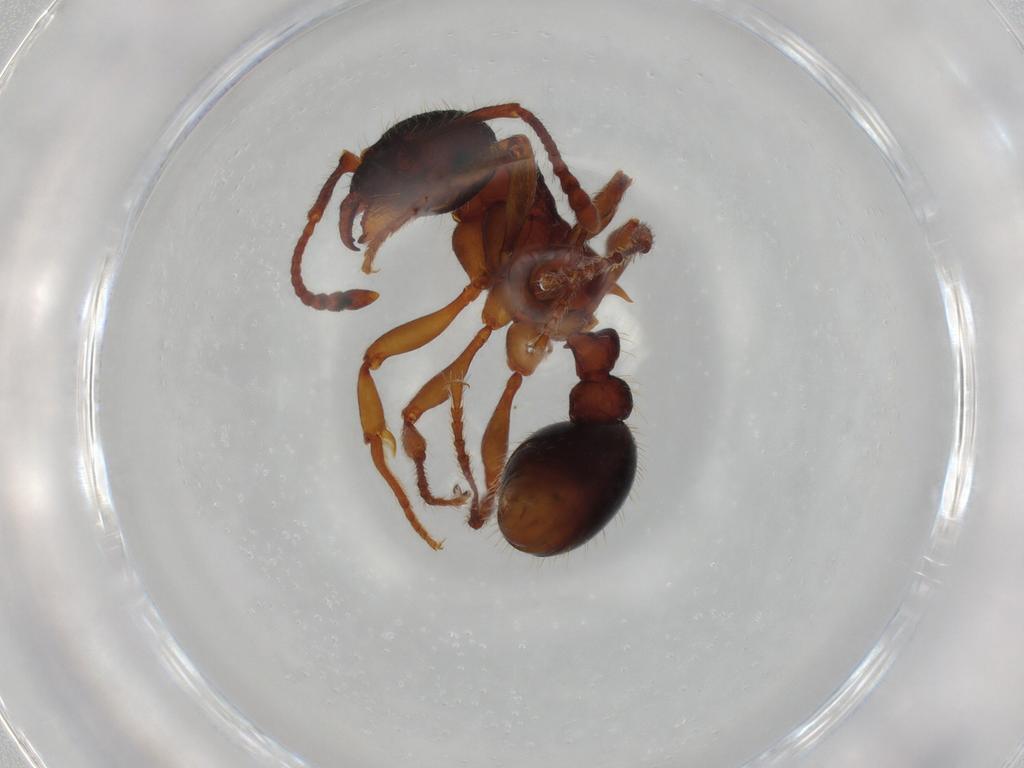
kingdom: Animalia
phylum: Arthropoda
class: Insecta
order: Hymenoptera
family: Formicidae
